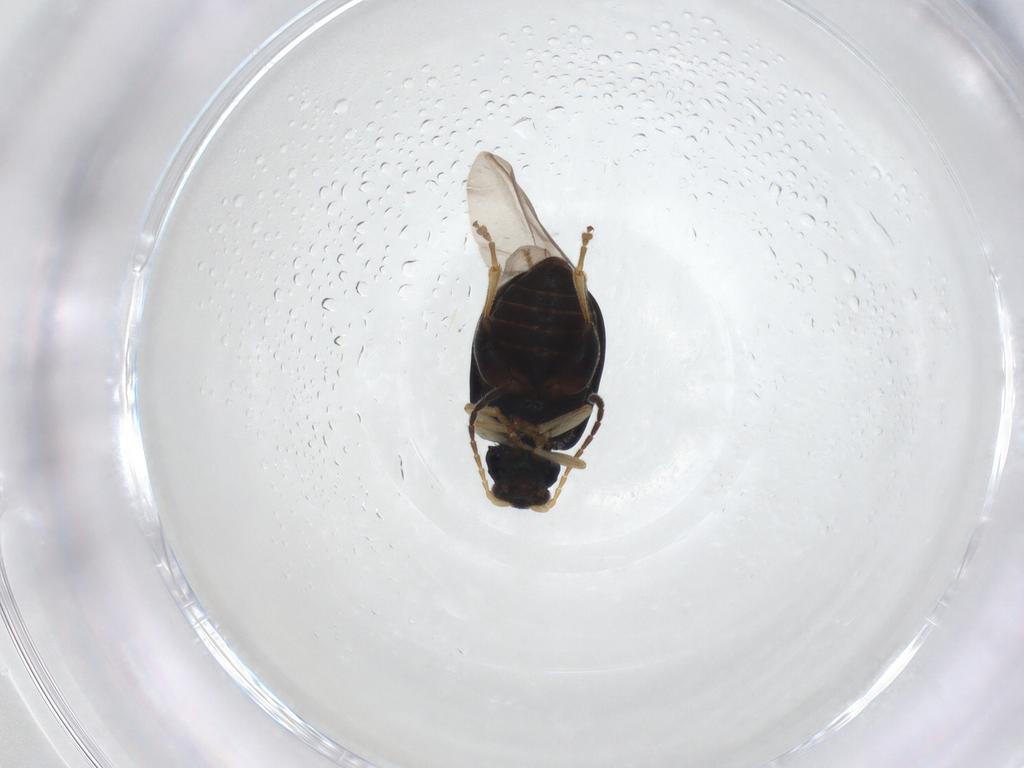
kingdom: Animalia
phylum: Arthropoda
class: Insecta
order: Coleoptera
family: Chrysomelidae
